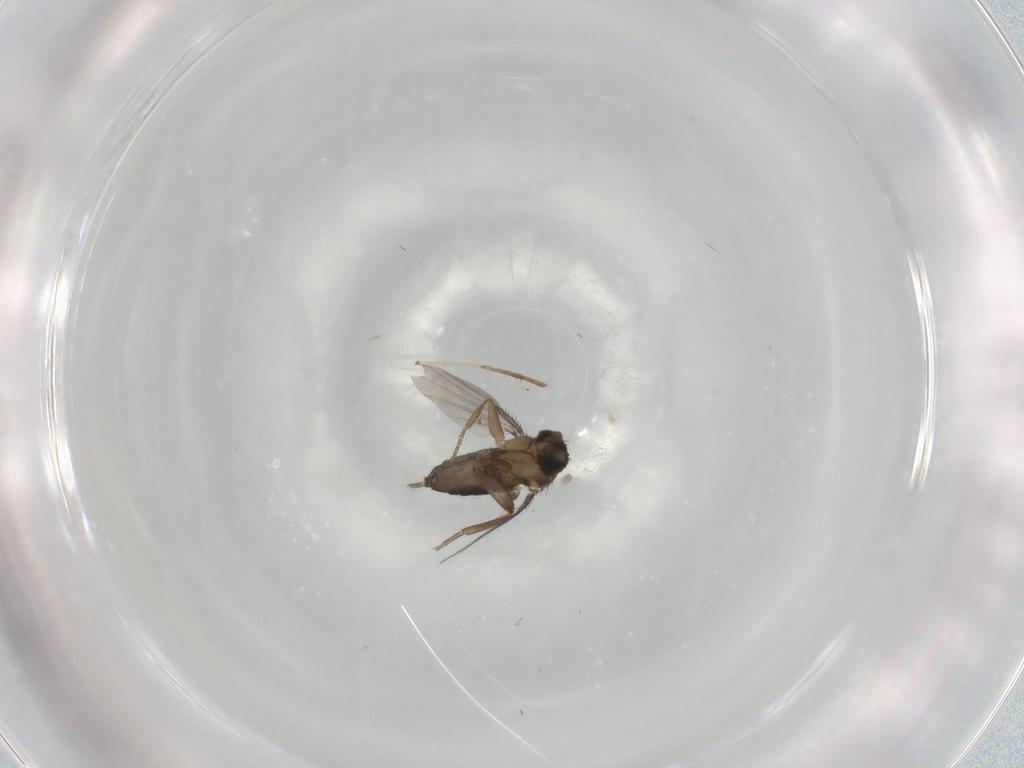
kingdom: Animalia
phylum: Arthropoda
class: Insecta
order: Diptera
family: Phoridae
